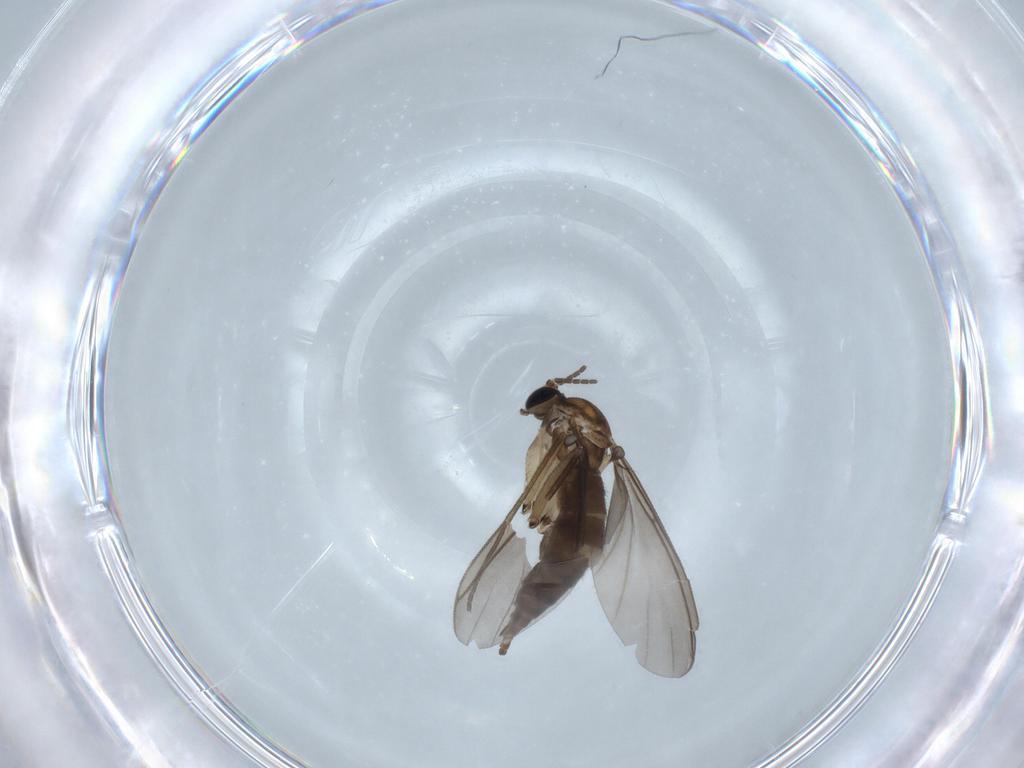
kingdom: Animalia
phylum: Arthropoda
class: Insecta
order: Diptera
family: Sciaridae
